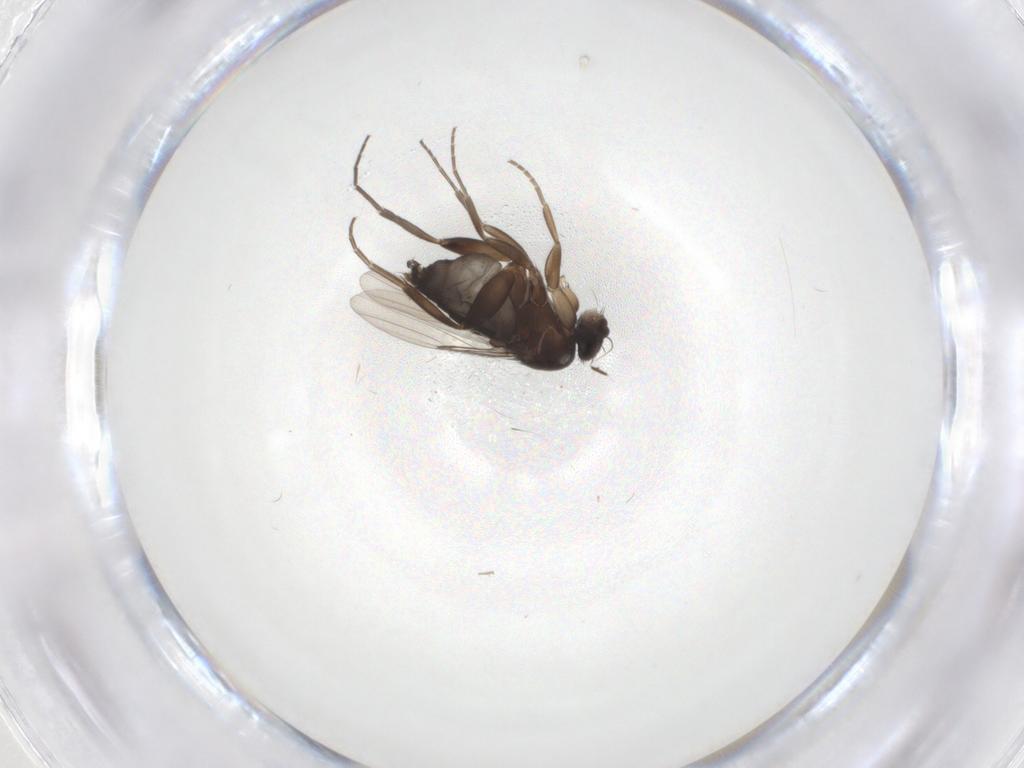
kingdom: Animalia
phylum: Arthropoda
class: Insecta
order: Diptera
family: Phoridae
